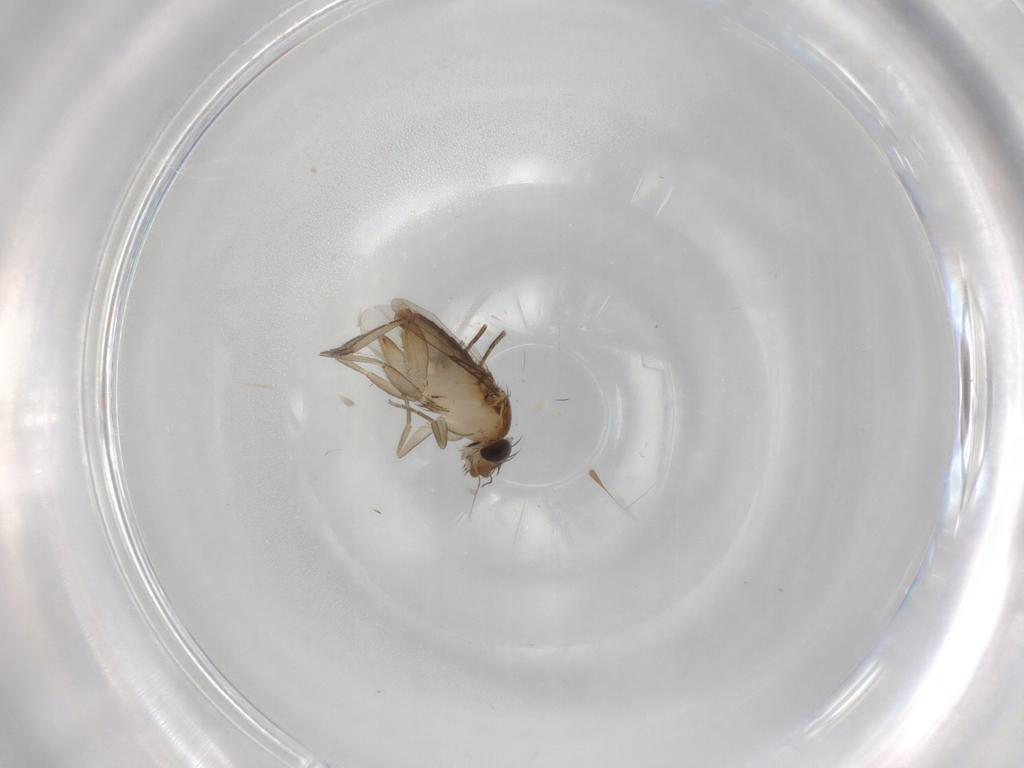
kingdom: Animalia
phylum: Arthropoda
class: Insecta
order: Diptera
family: Phoridae
